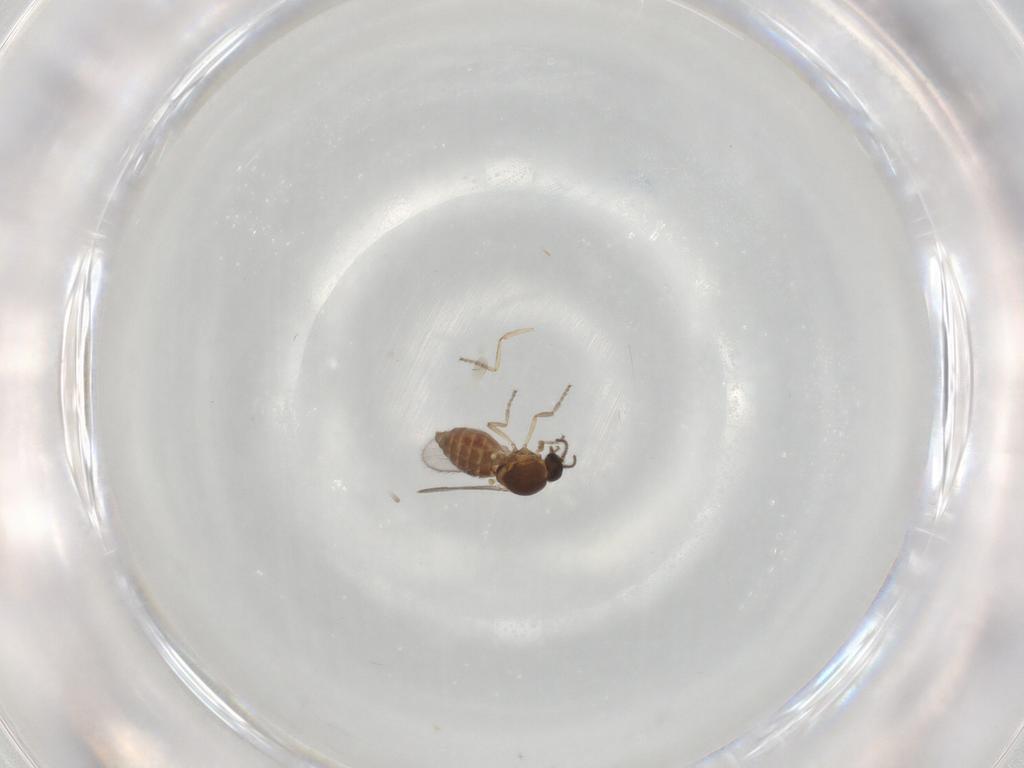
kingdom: Animalia
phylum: Arthropoda
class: Insecta
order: Diptera
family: Ceratopogonidae
